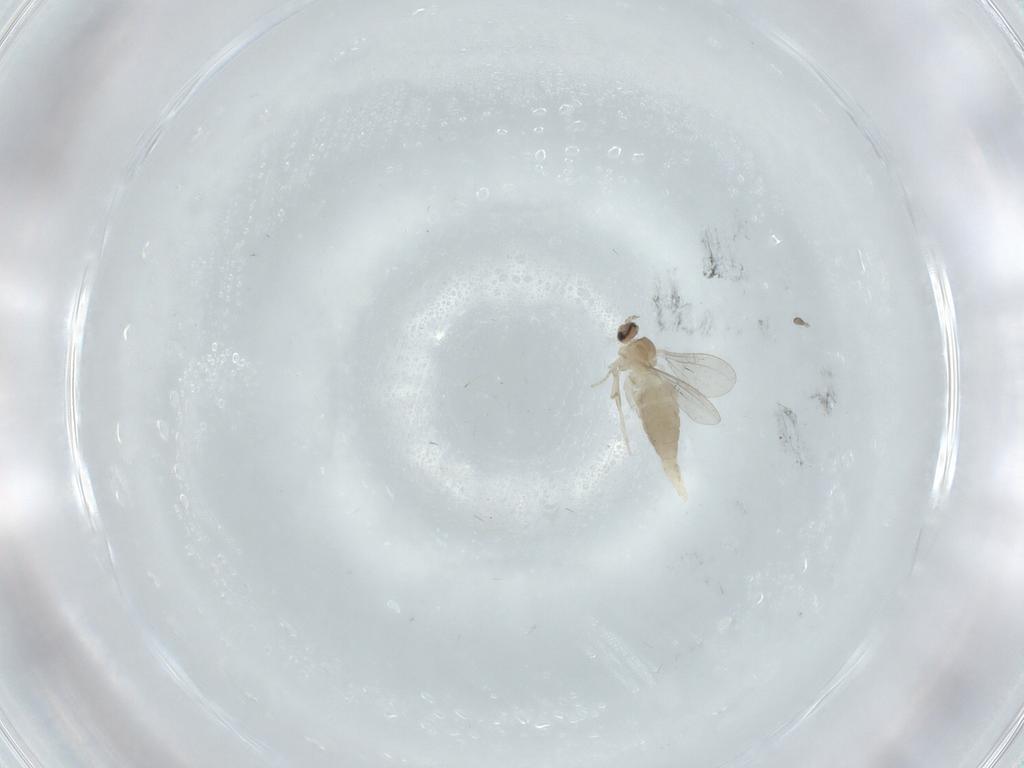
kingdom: Animalia
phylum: Arthropoda
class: Insecta
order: Diptera
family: Cecidomyiidae
